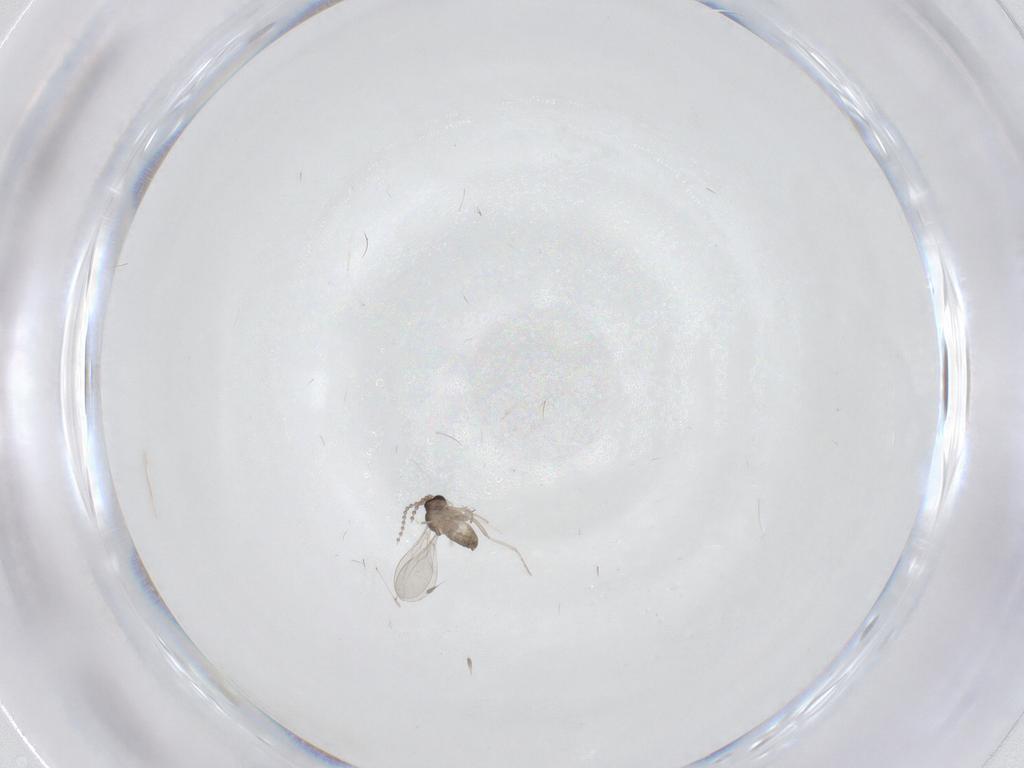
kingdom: Animalia
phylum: Arthropoda
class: Insecta
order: Diptera
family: Cecidomyiidae
